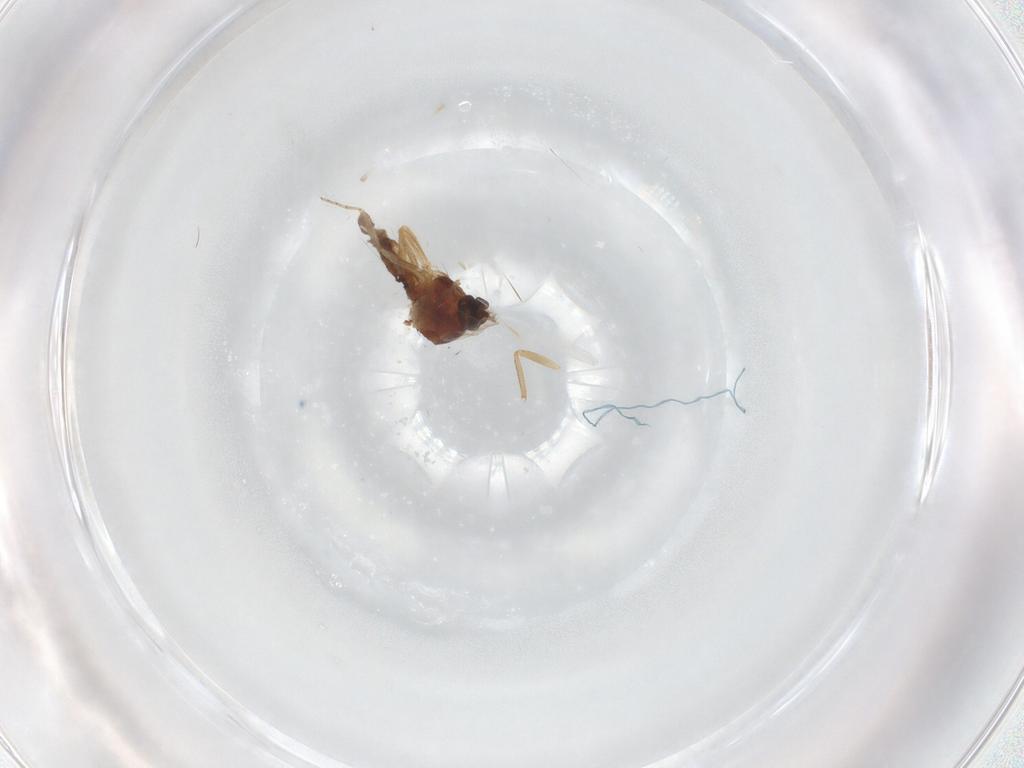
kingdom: Animalia
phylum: Arthropoda
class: Insecta
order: Diptera
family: Ceratopogonidae
